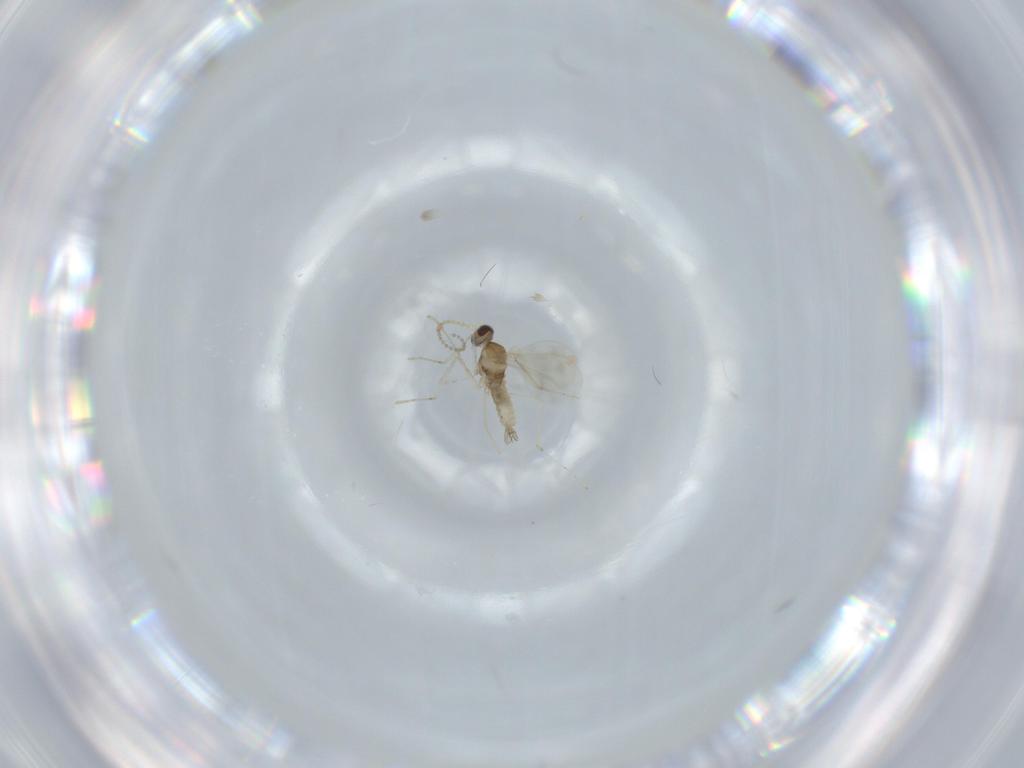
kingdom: Animalia
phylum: Arthropoda
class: Insecta
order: Diptera
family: Cecidomyiidae
